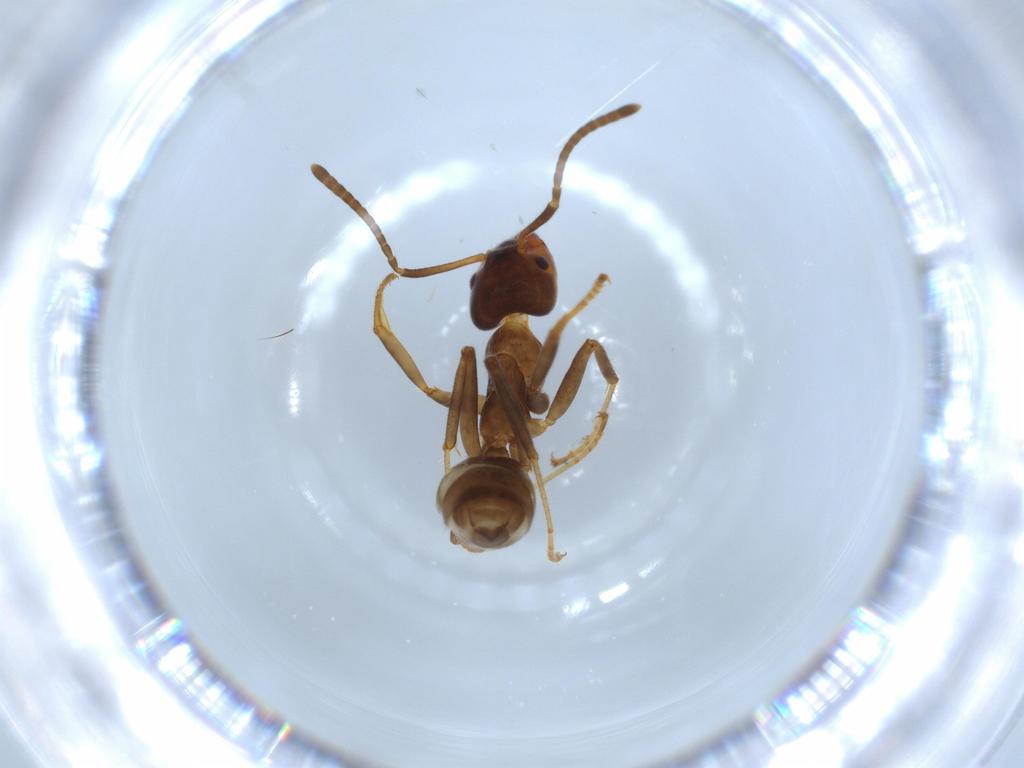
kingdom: Animalia
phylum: Arthropoda
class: Insecta
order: Hymenoptera
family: Formicidae
